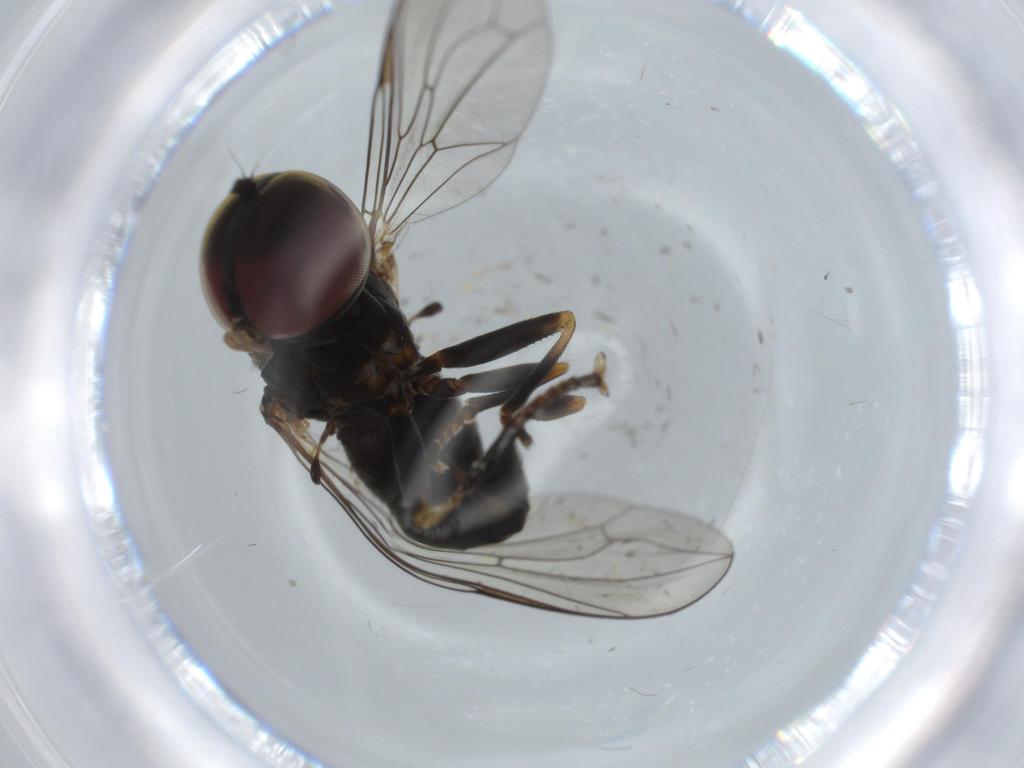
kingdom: Animalia
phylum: Arthropoda
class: Insecta
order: Diptera
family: Pipunculidae
